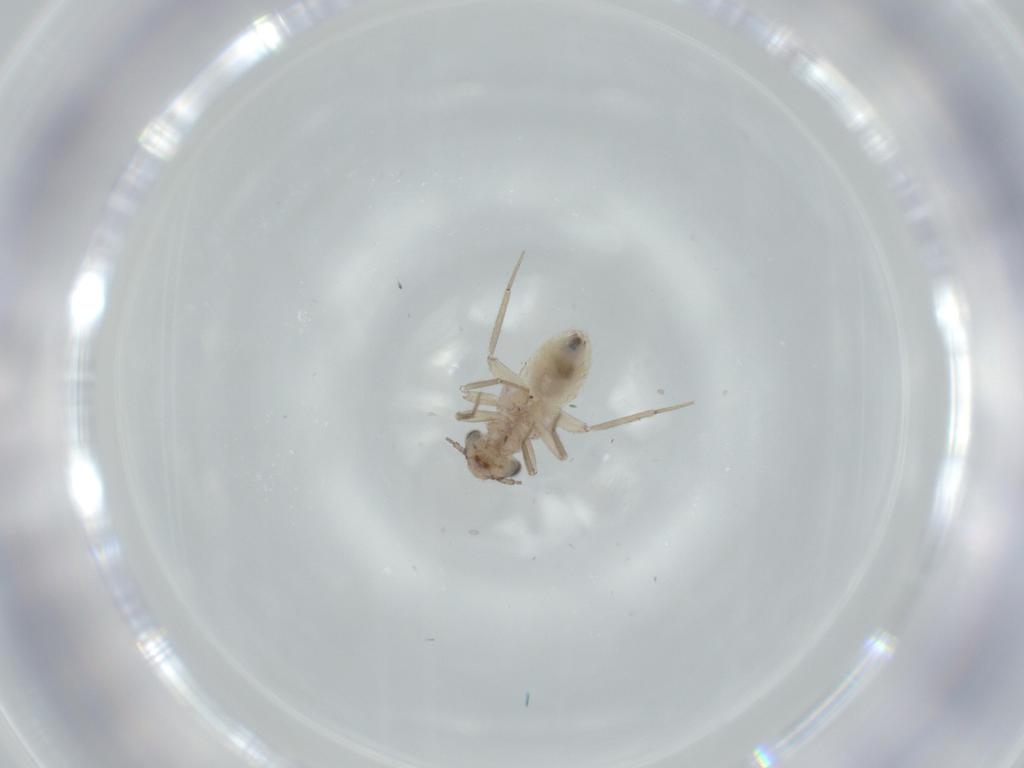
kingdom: Animalia
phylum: Arthropoda
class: Insecta
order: Psocodea
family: Lepidopsocidae
